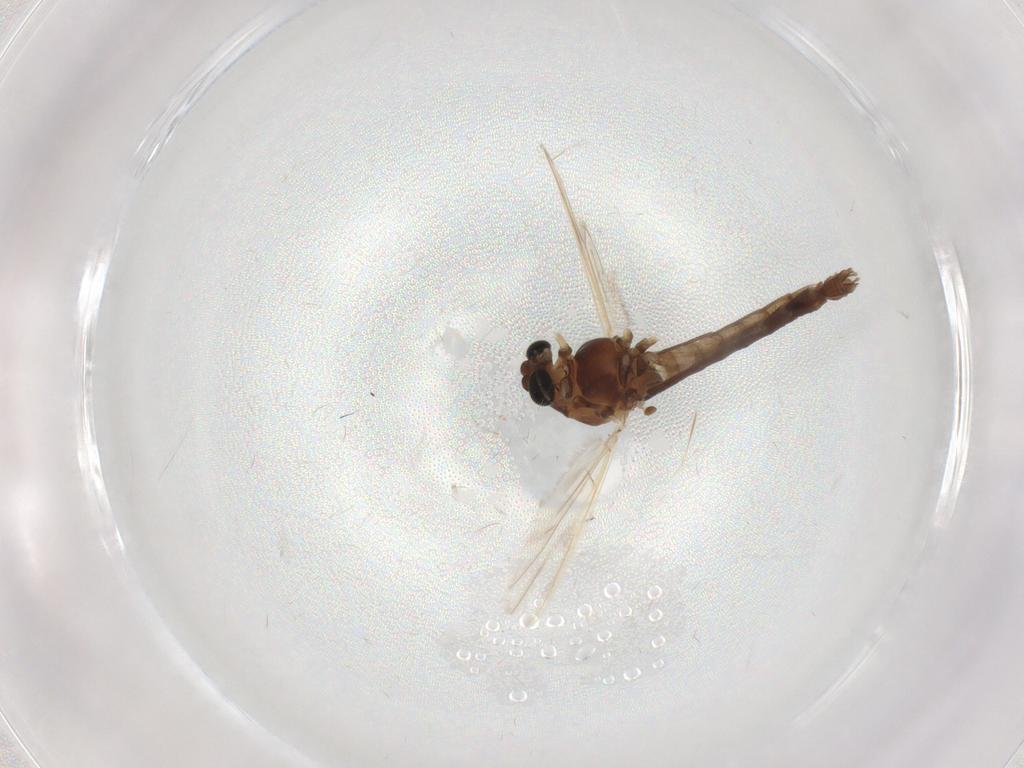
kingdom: Animalia
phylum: Arthropoda
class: Insecta
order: Diptera
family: Chironomidae
